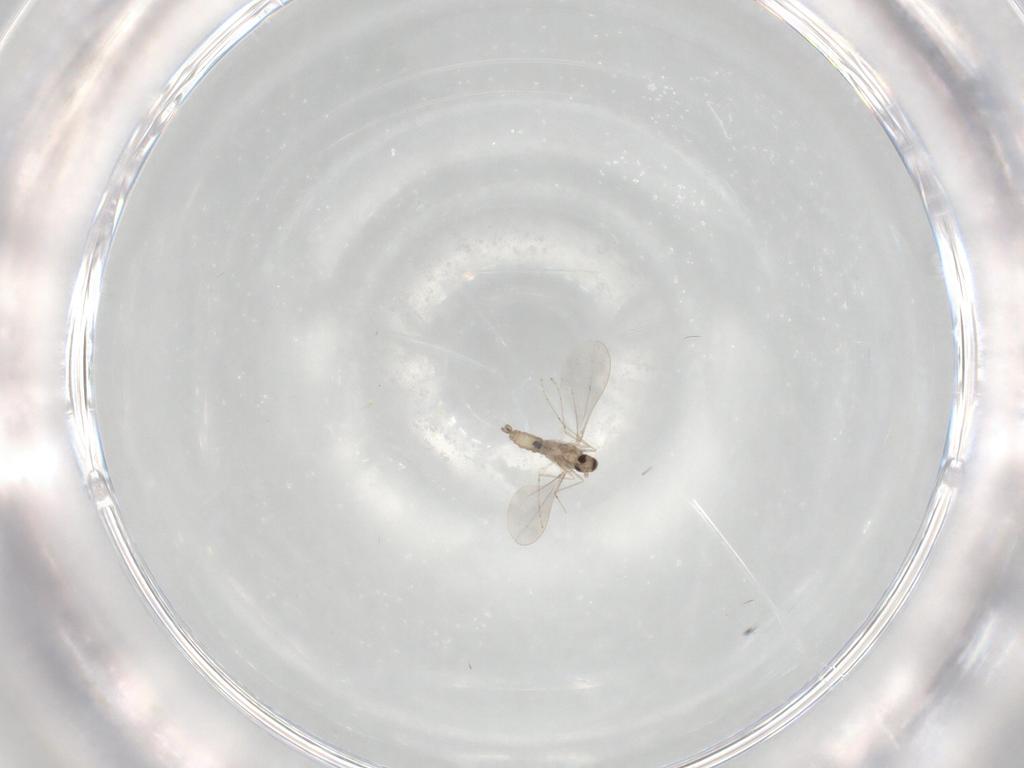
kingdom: Animalia
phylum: Arthropoda
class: Insecta
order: Diptera
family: Cecidomyiidae
